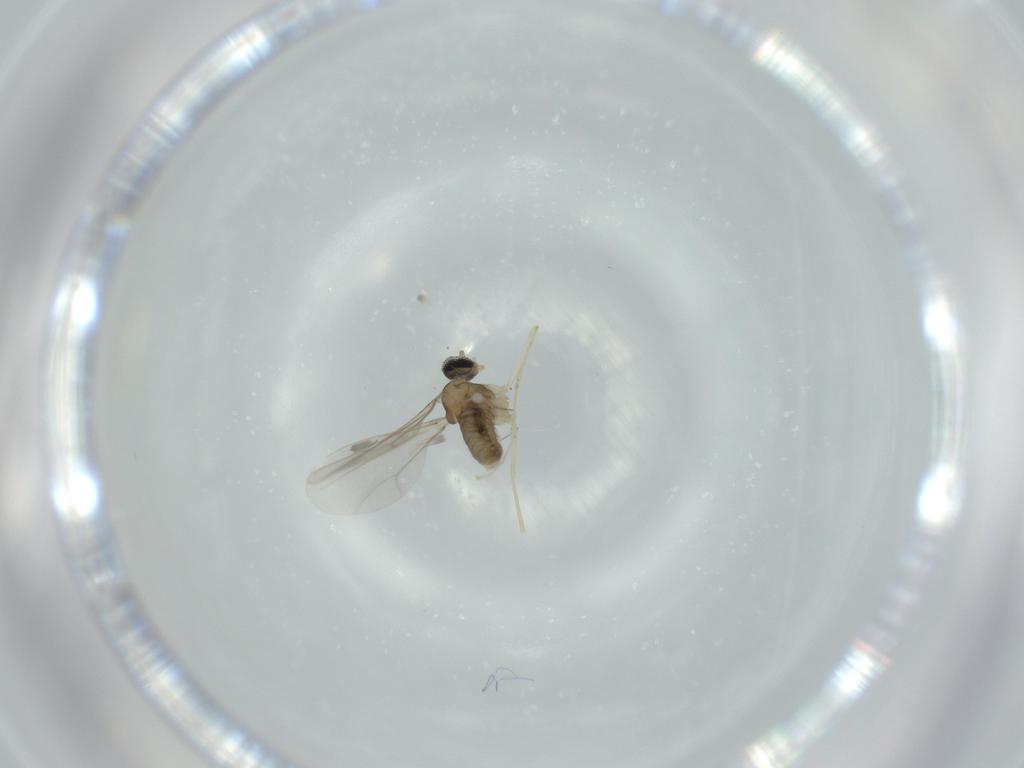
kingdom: Animalia
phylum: Arthropoda
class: Insecta
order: Diptera
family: Cecidomyiidae
